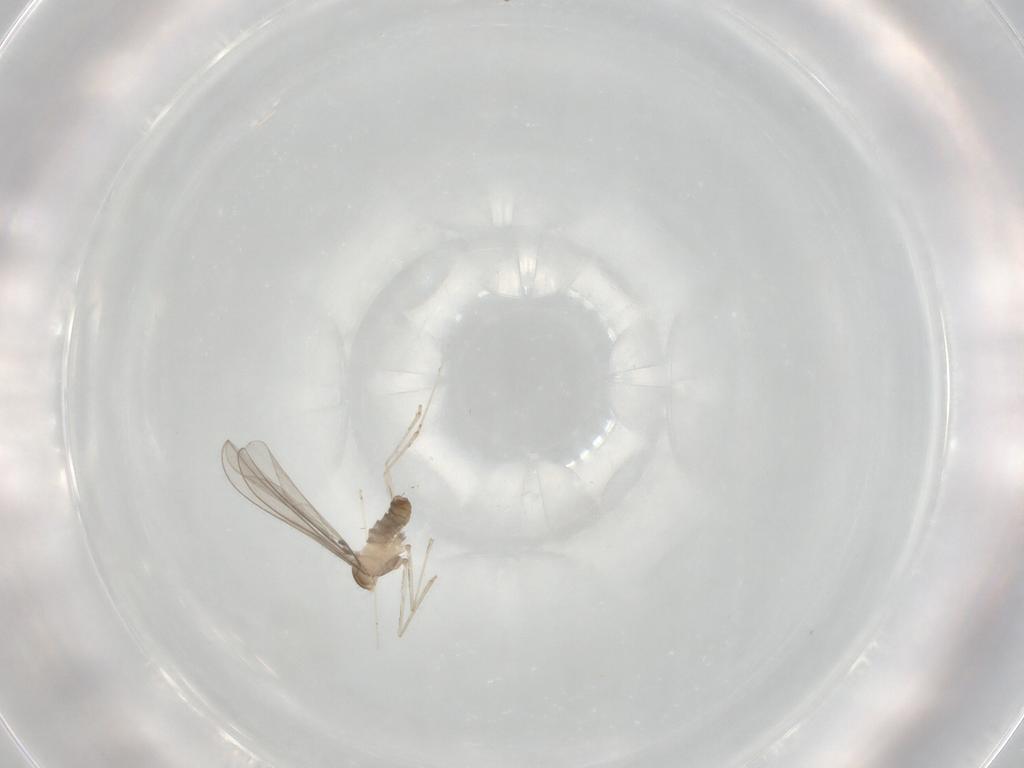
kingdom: Animalia
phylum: Arthropoda
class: Insecta
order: Diptera
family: Cecidomyiidae
